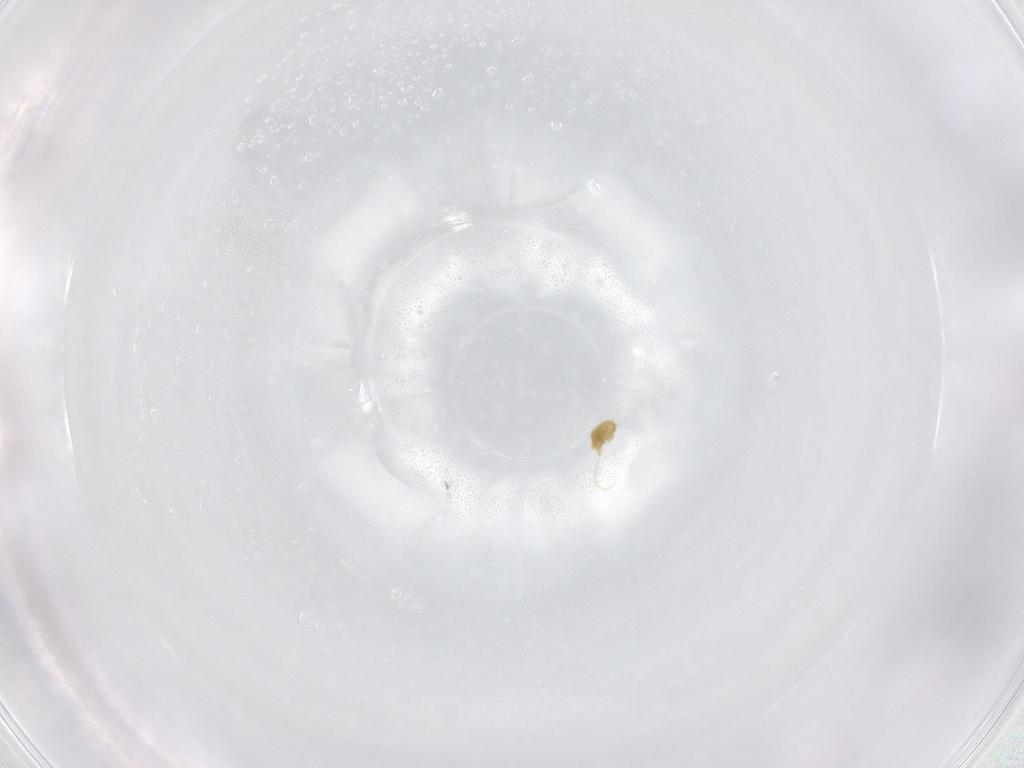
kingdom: Animalia
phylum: Arthropoda
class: Arachnida
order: Trombidiformes
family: Eupodidae
